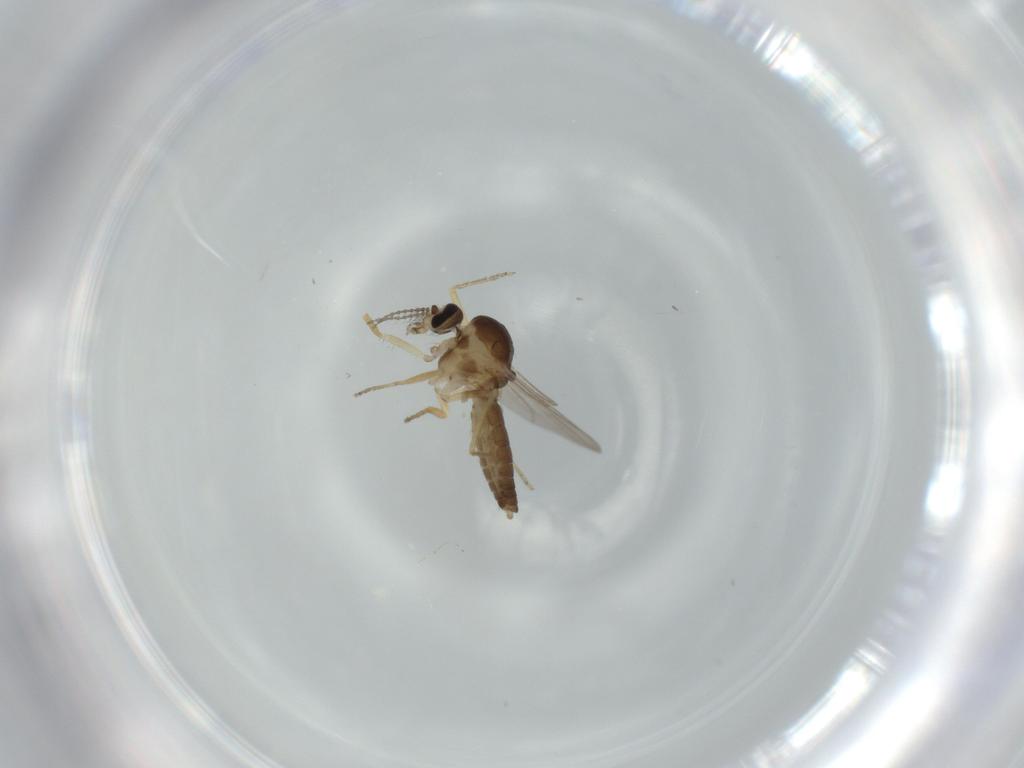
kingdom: Animalia
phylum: Arthropoda
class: Insecta
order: Diptera
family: Ceratopogonidae
